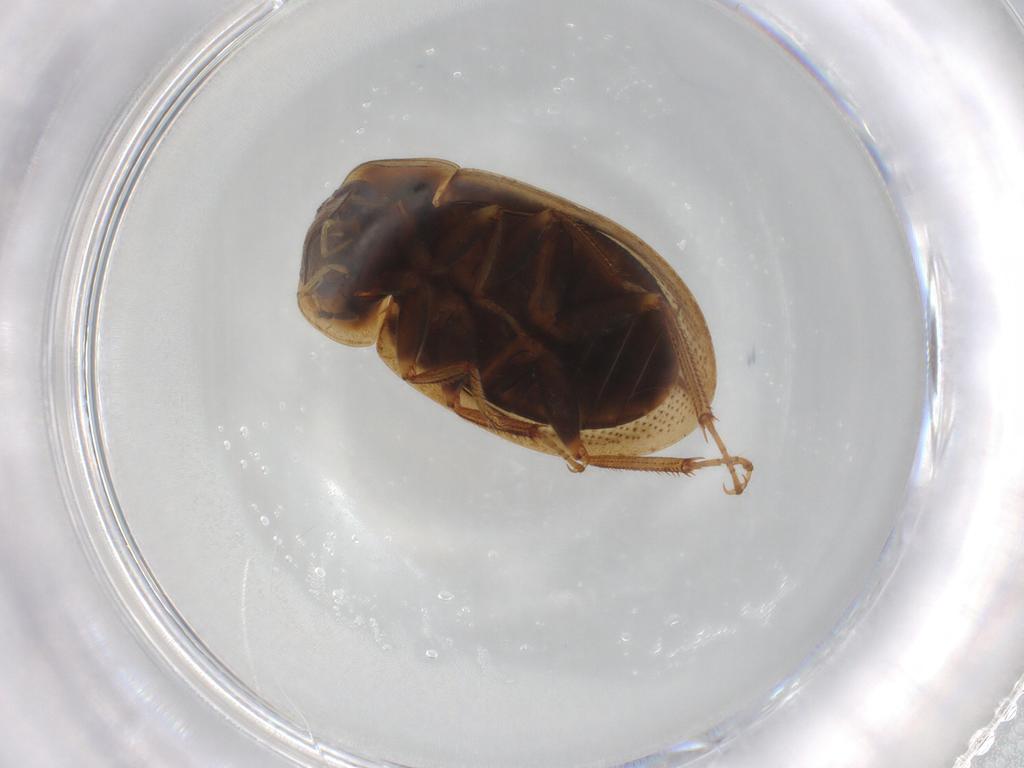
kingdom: Animalia
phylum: Arthropoda
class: Insecta
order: Coleoptera
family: Hydrophilidae
